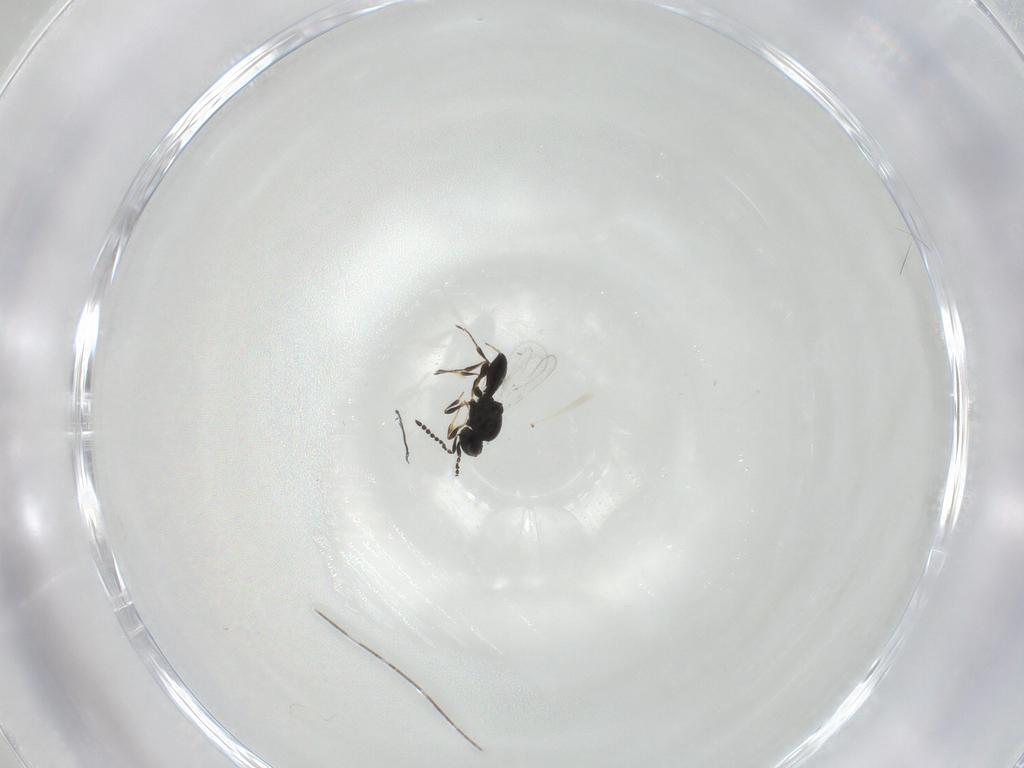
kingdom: Animalia
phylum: Arthropoda
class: Insecta
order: Hymenoptera
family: Platygastridae
